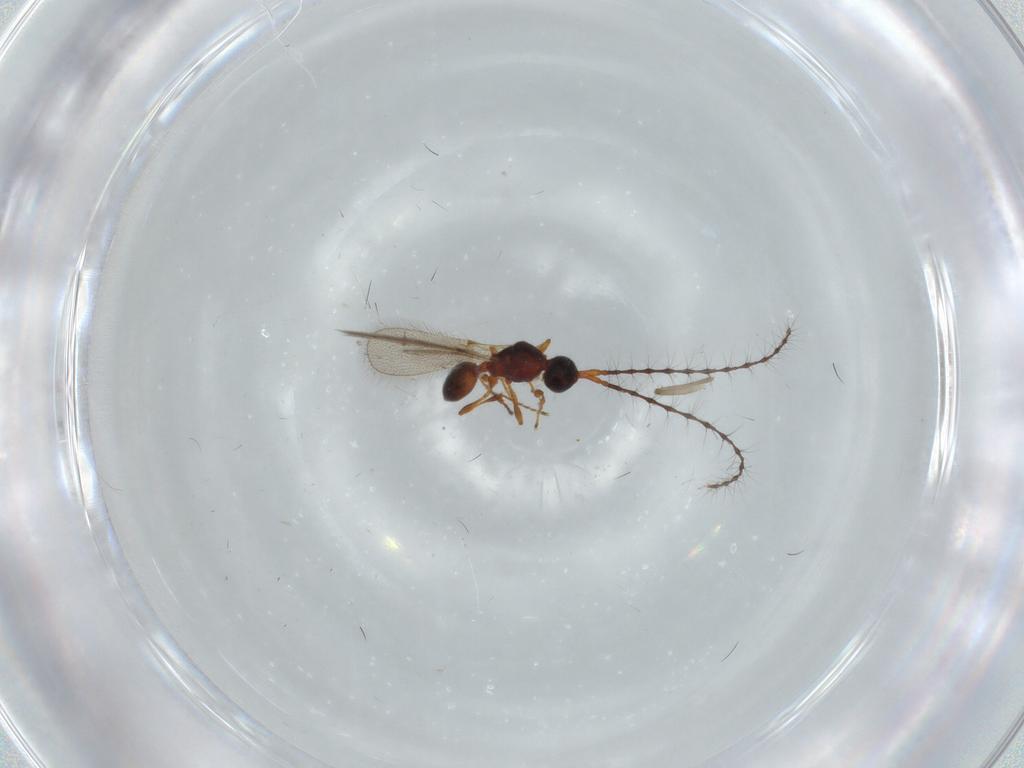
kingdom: Animalia
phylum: Arthropoda
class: Insecta
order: Hymenoptera
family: Diapriidae
